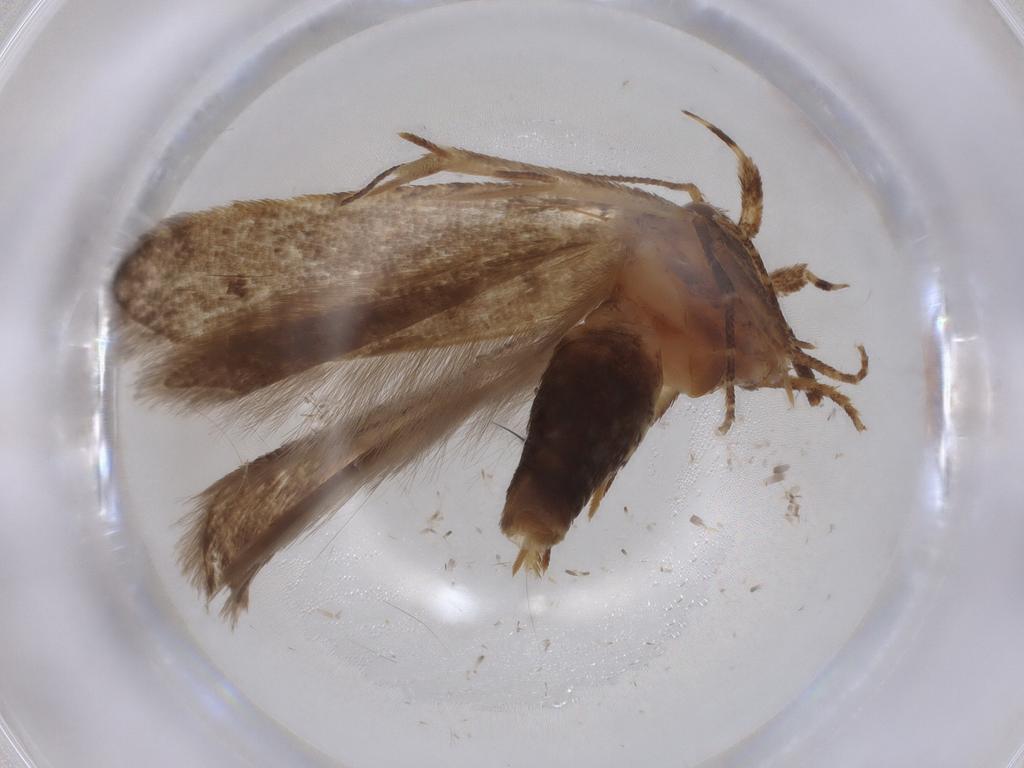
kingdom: Animalia
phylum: Arthropoda
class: Insecta
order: Lepidoptera
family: Gelechiidae
